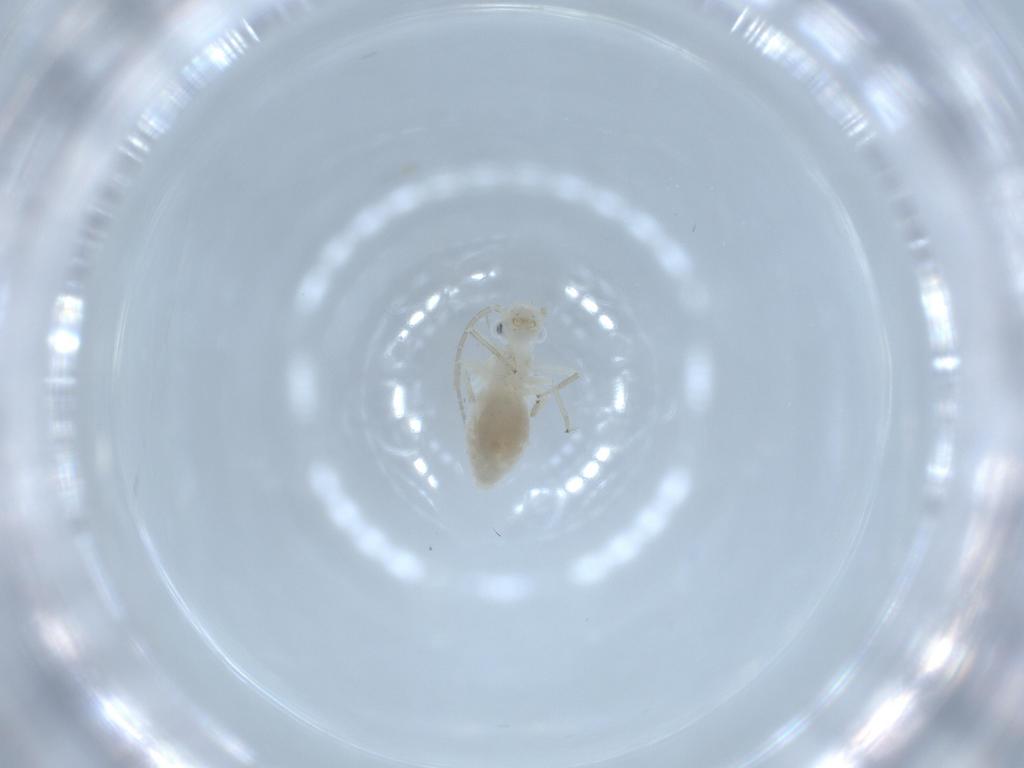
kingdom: Animalia
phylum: Arthropoda
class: Insecta
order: Psocodea
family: Caeciliusidae
